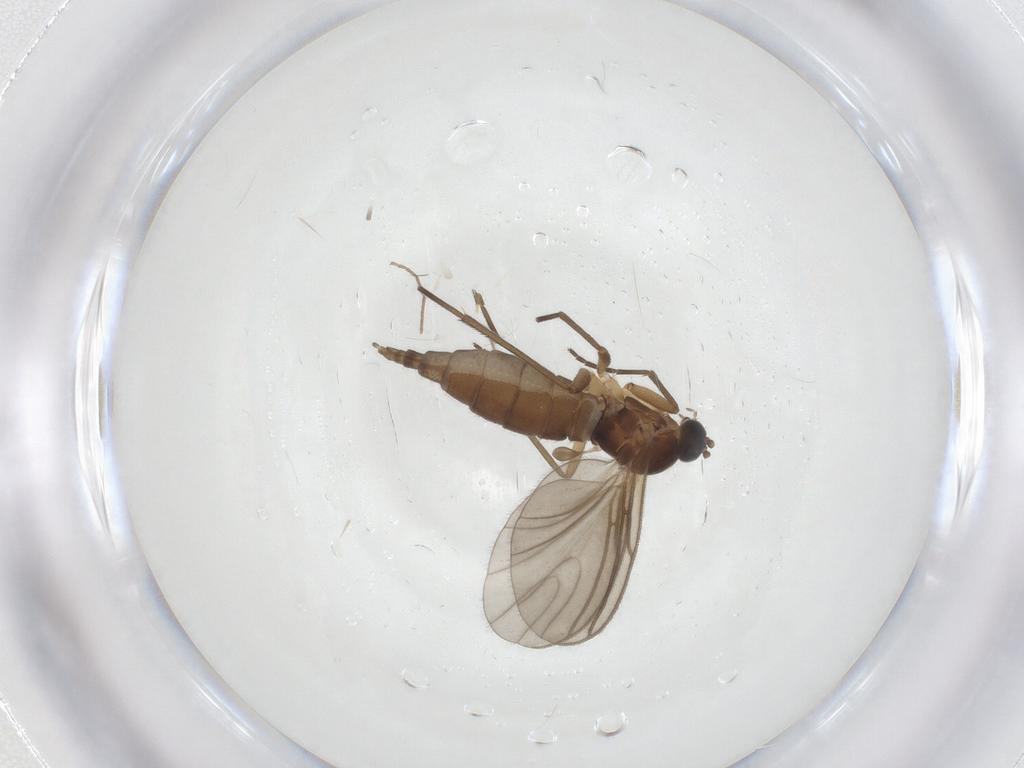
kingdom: Animalia
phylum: Arthropoda
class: Insecta
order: Diptera
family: Sciaridae
